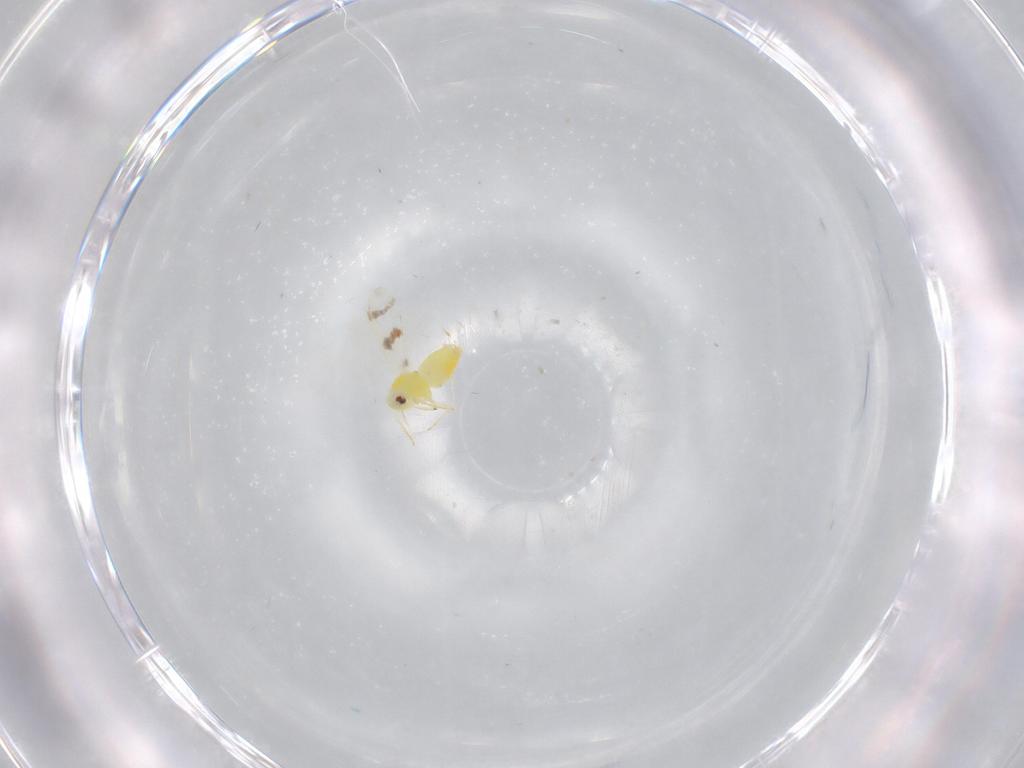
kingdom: Animalia
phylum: Arthropoda
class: Insecta
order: Hemiptera
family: Aleyrodidae
